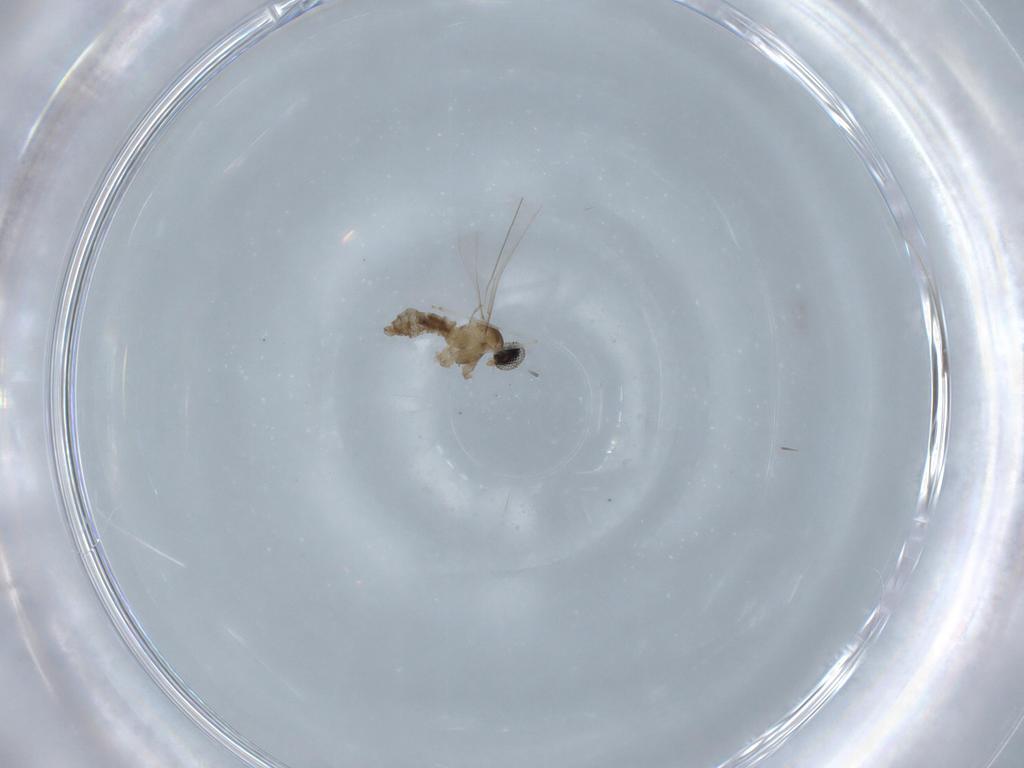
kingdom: Animalia
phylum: Arthropoda
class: Insecta
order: Diptera
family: Cecidomyiidae
